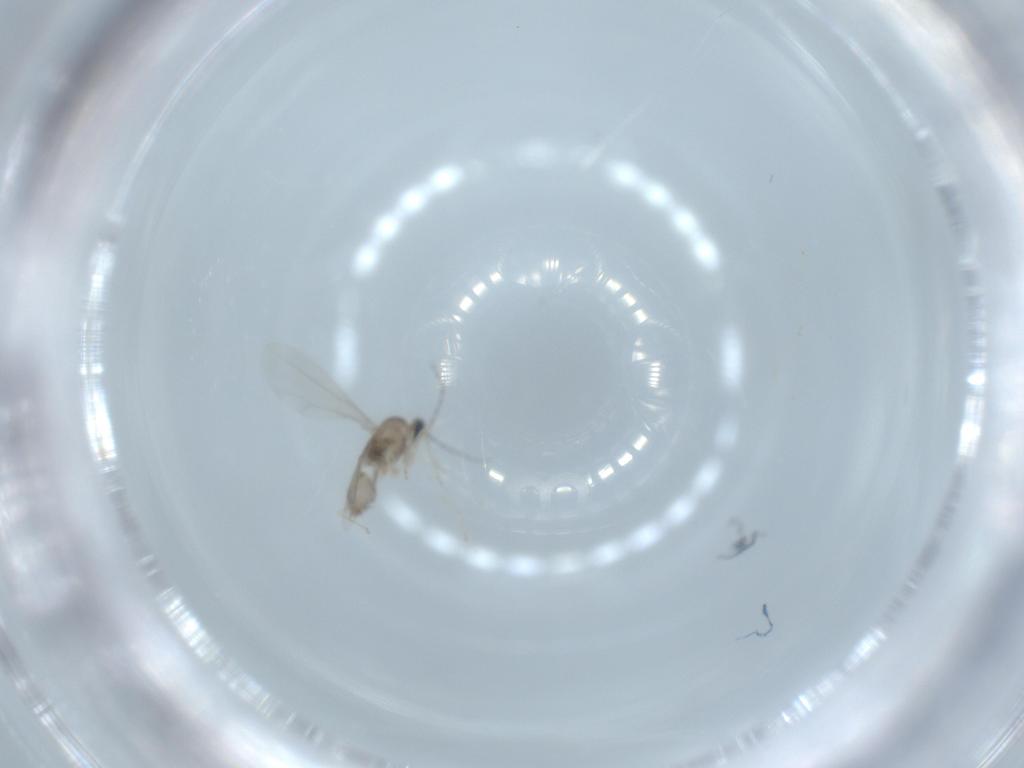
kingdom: Animalia
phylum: Arthropoda
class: Insecta
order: Diptera
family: Cecidomyiidae
